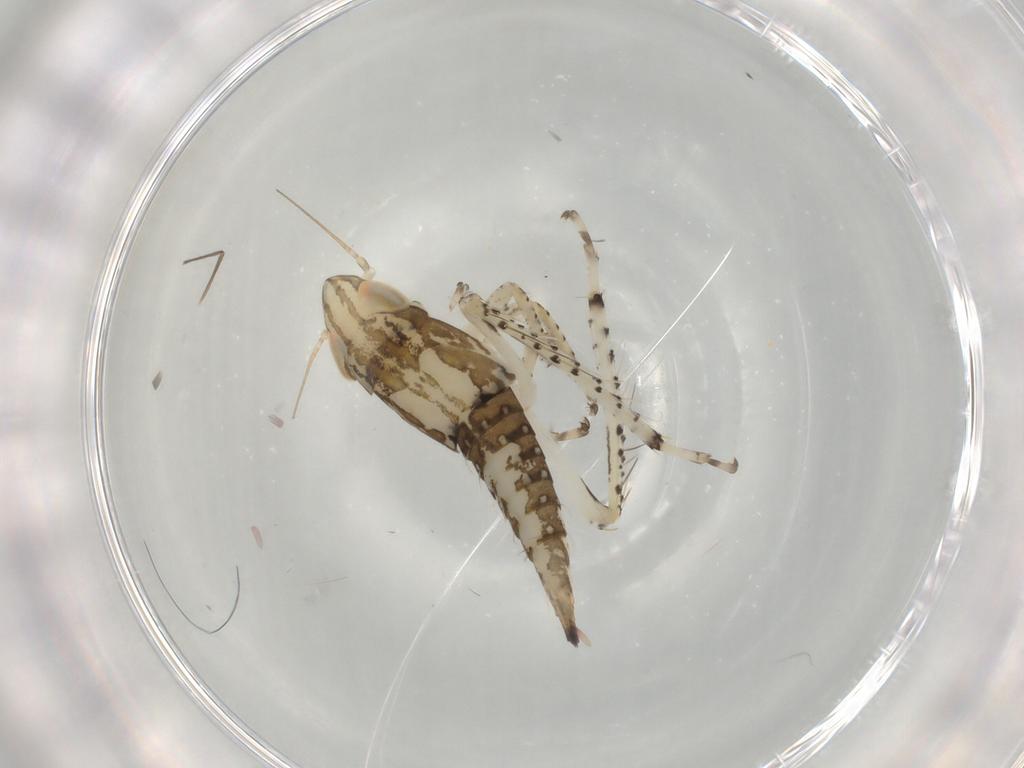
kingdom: Animalia
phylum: Arthropoda
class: Insecta
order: Hemiptera
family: Cicadellidae
